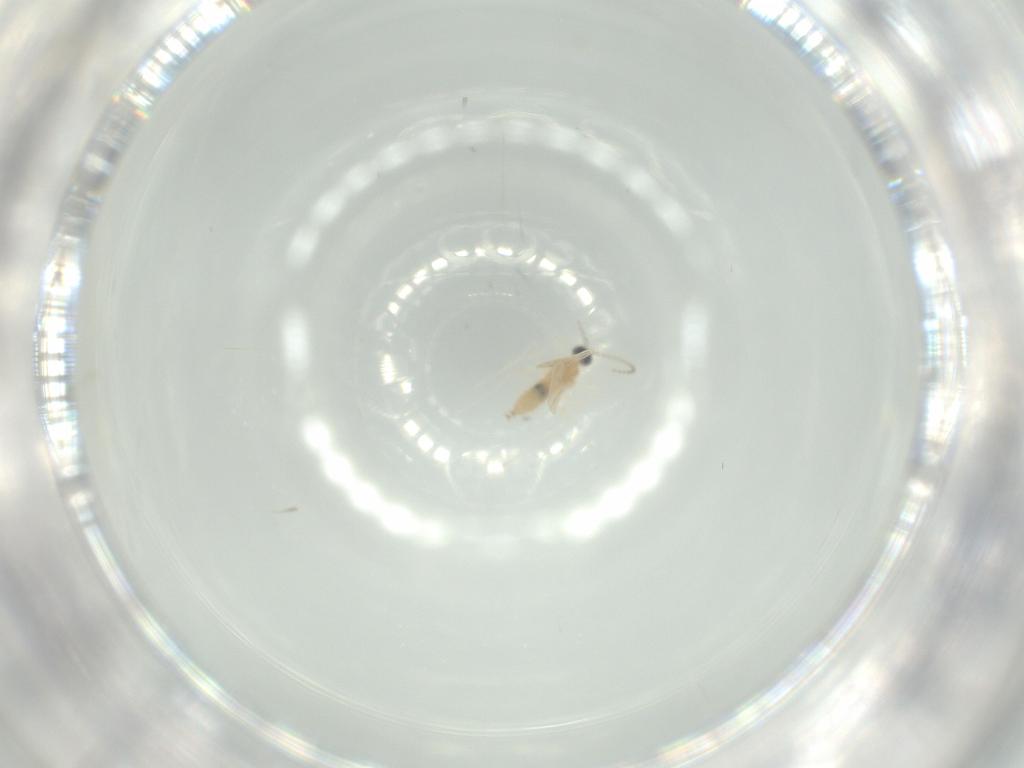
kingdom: Animalia
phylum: Arthropoda
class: Insecta
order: Diptera
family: Cecidomyiidae
